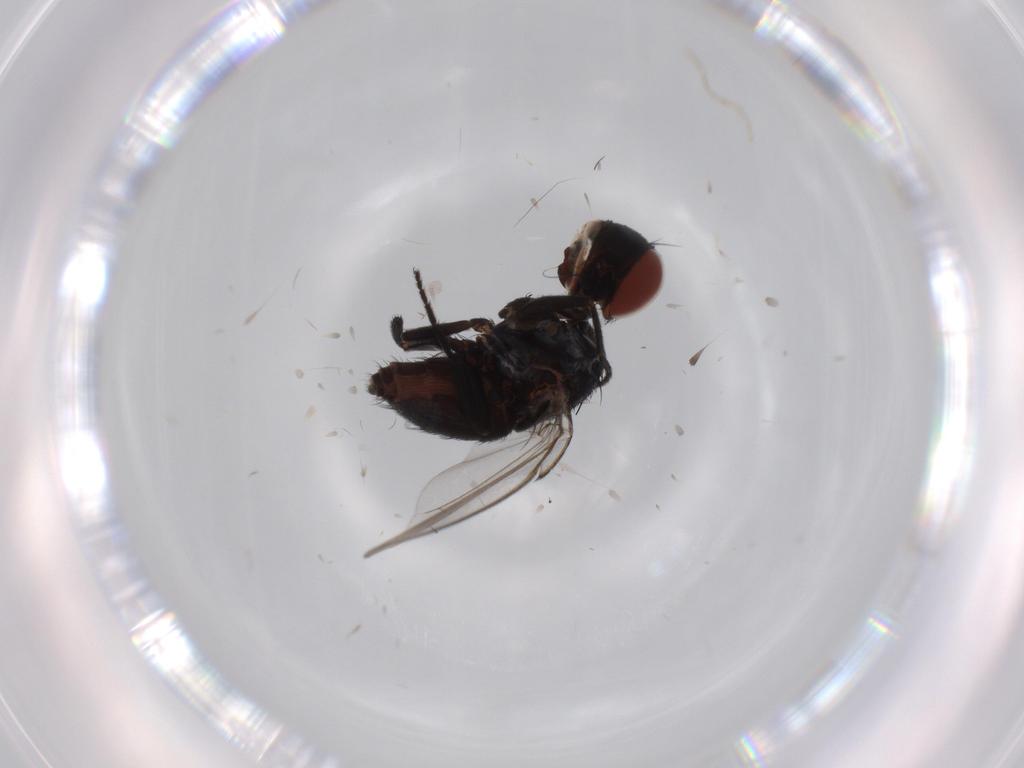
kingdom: Animalia
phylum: Arthropoda
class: Insecta
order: Diptera
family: Milichiidae
